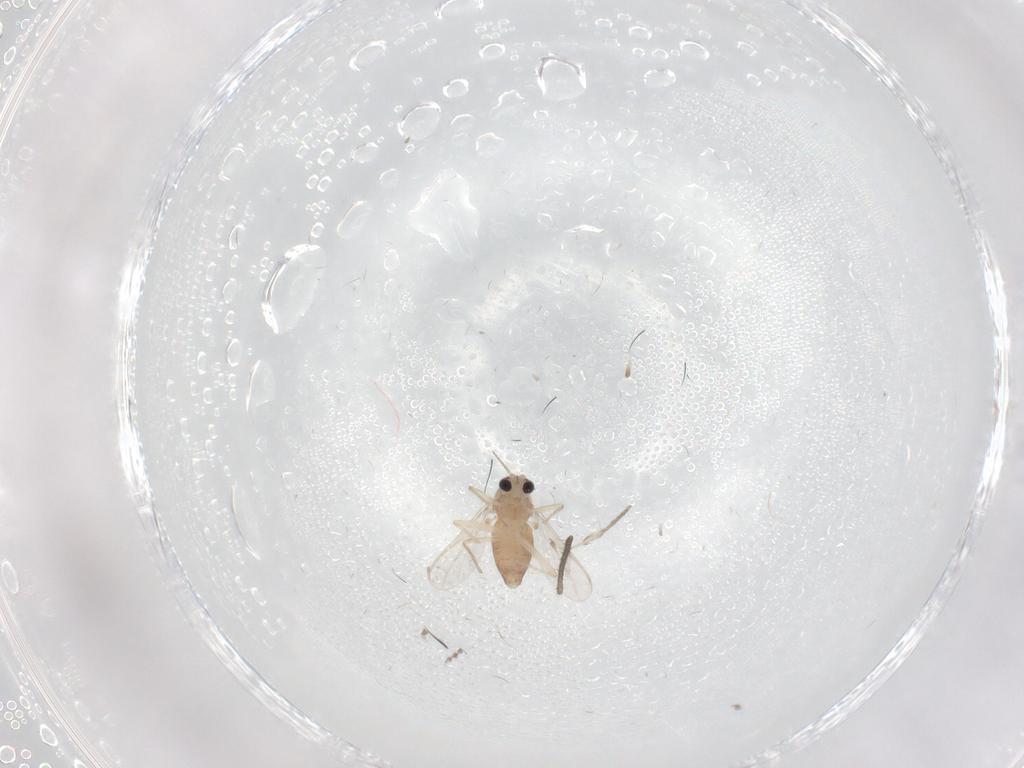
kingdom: Animalia
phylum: Arthropoda
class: Insecta
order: Diptera
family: Chironomidae
